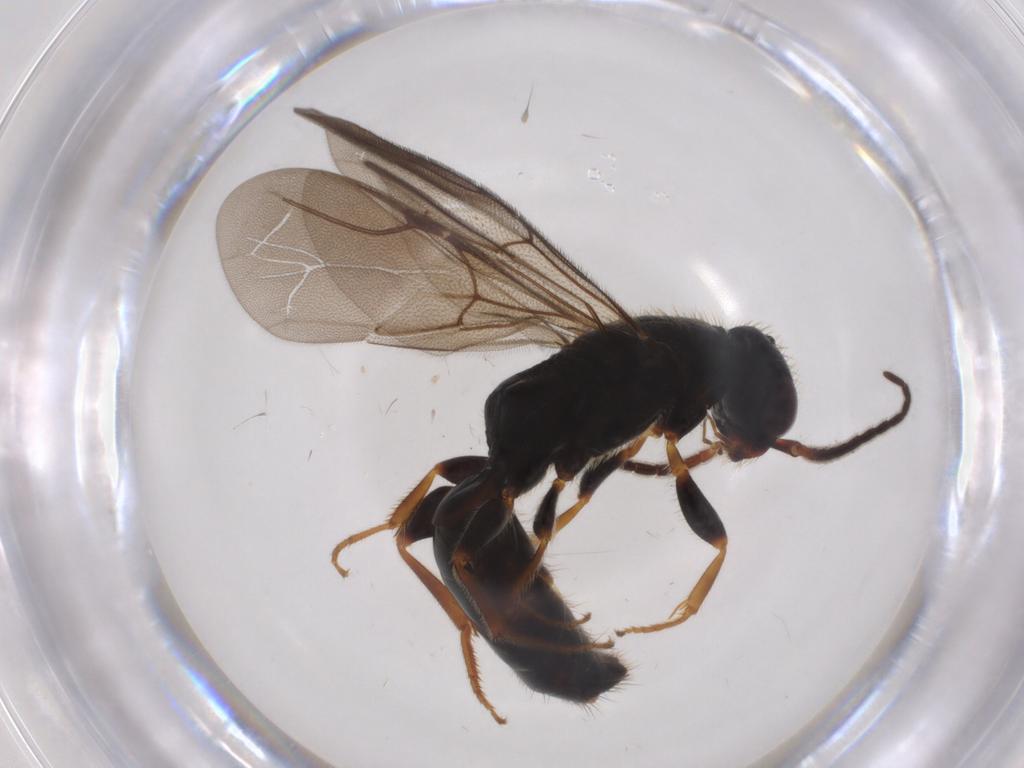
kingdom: Animalia
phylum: Arthropoda
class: Insecta
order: Hymenoptera
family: Bethylidae
